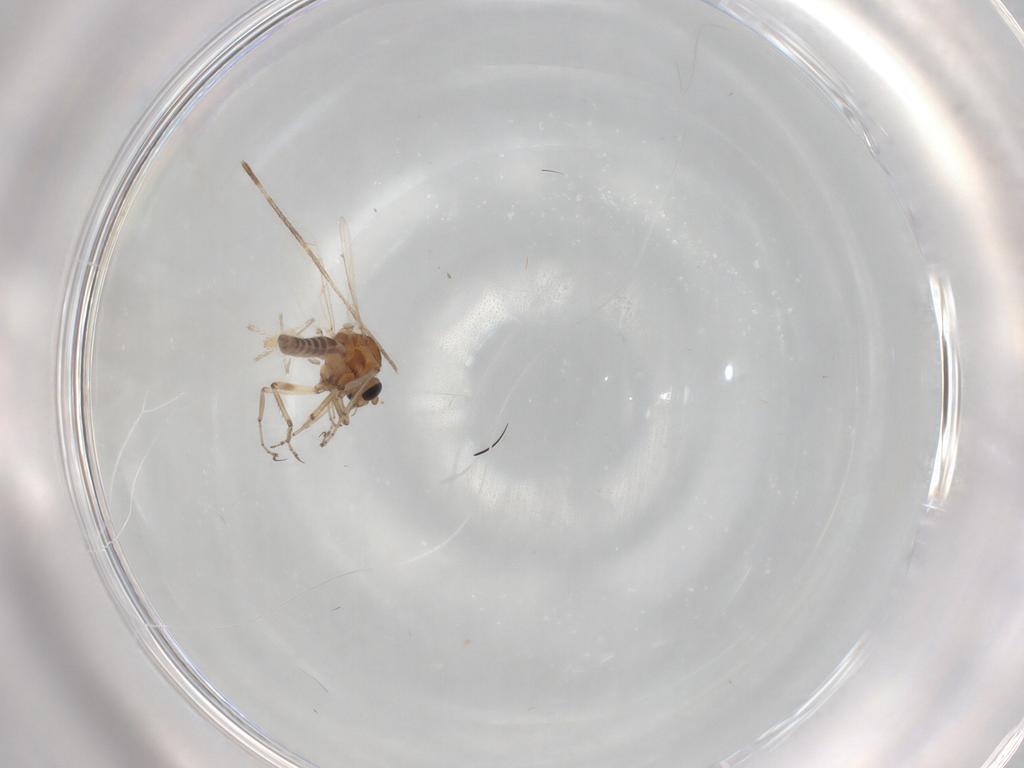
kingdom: Animalia
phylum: Arthropoda
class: Insecta
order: Diptera
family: Ceratopogonidae
